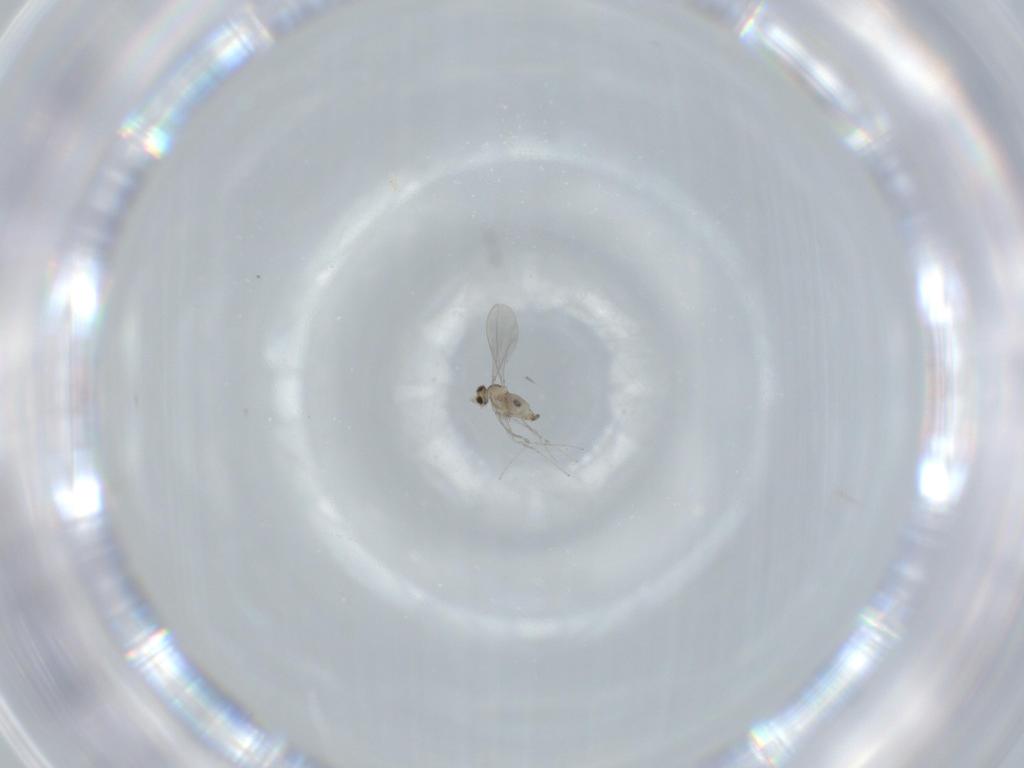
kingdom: Animalia
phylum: Arthropoda
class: Insecta
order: Diptera
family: Cecidomyiidae
